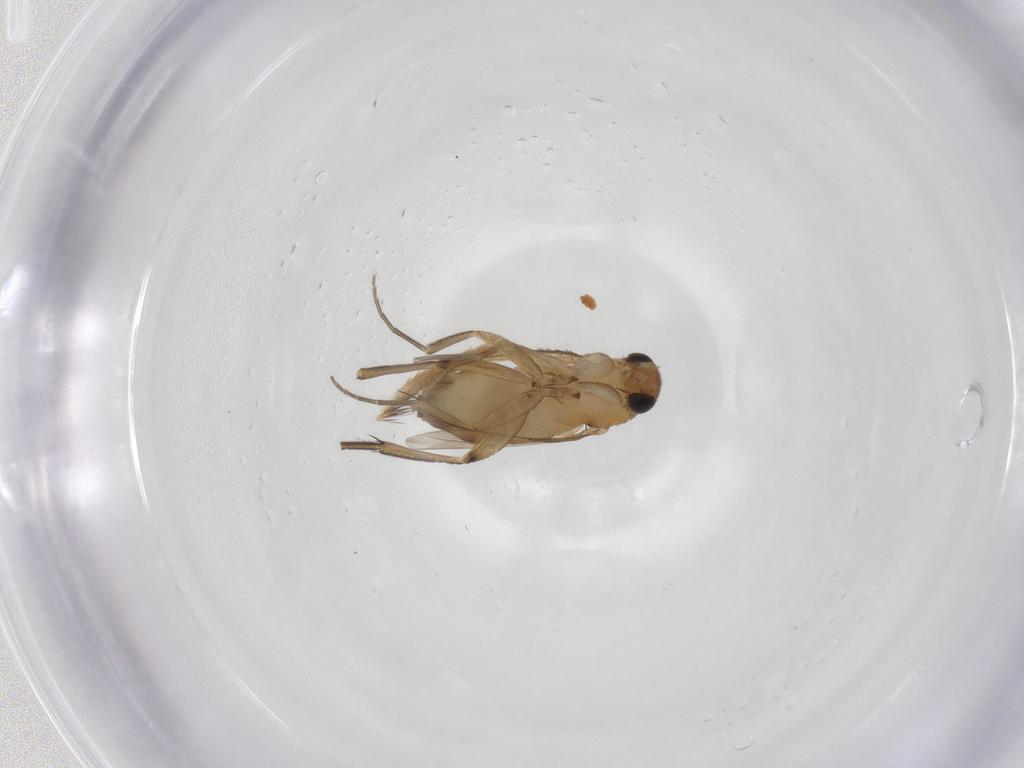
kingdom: Animalia
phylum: Arthropoda
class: Insecta
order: Diptera
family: Phoridae
